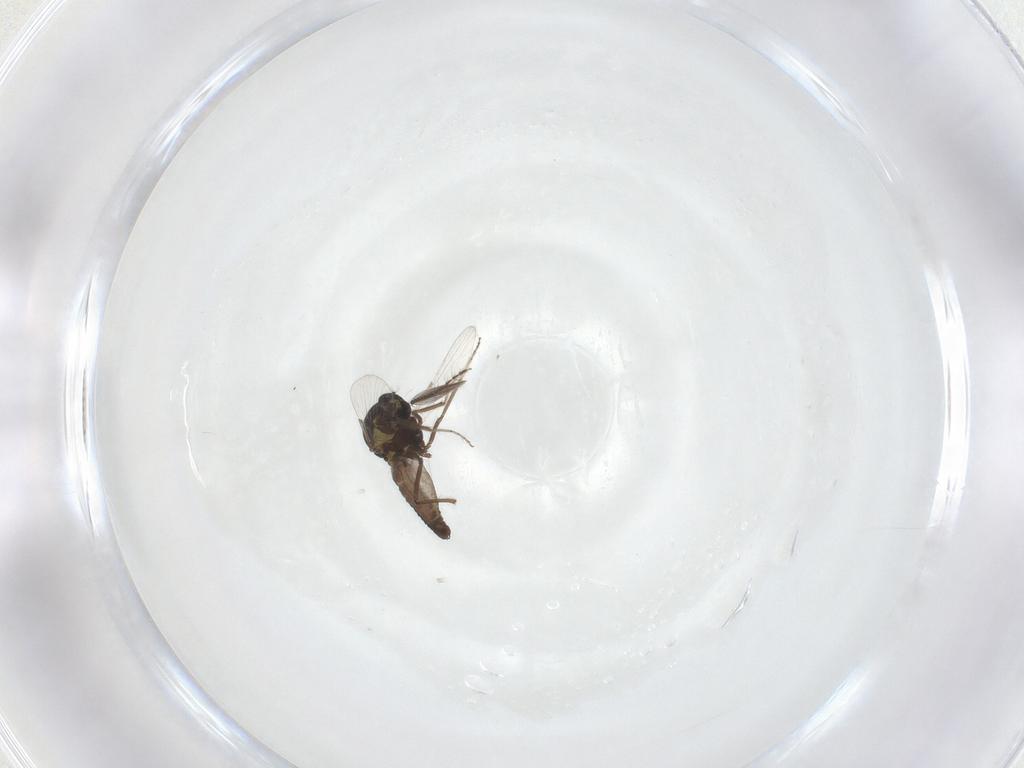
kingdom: Animalia
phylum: Arthropoda
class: Insecta
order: Diptera
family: Ceratopogonidae
